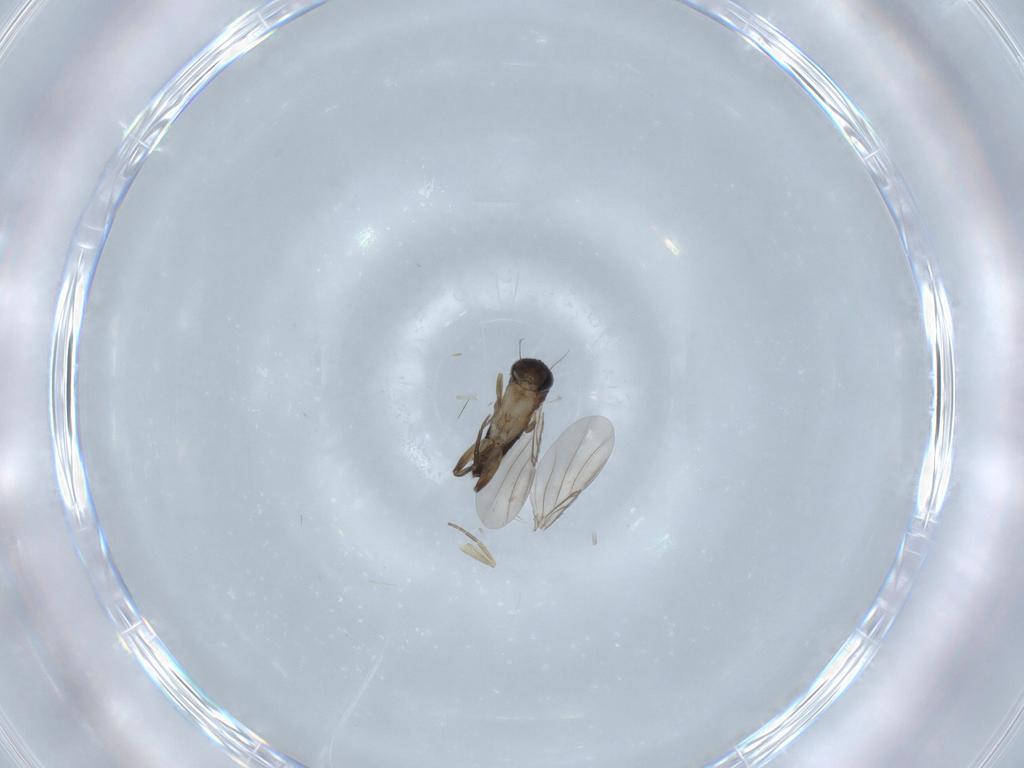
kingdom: Animalia
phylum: Arthropoda
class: Insecta
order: Diptera
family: Phoridae
